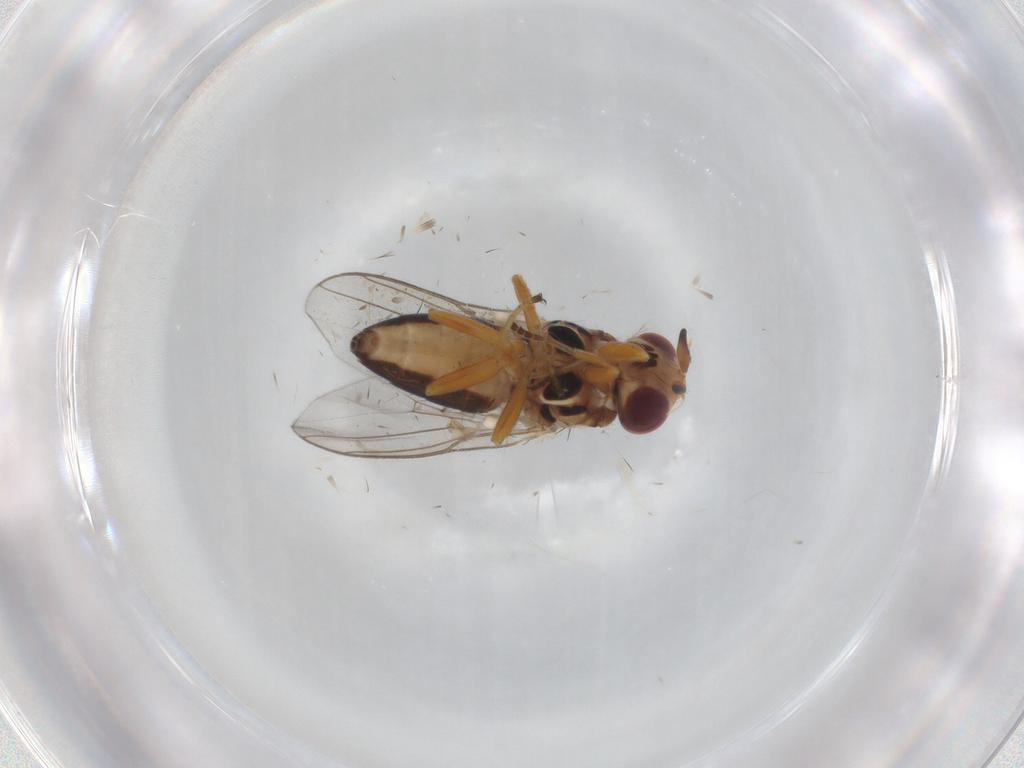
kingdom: Animalia
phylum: Arthropoda
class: Insecta
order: Diptera
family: Chloropidae
